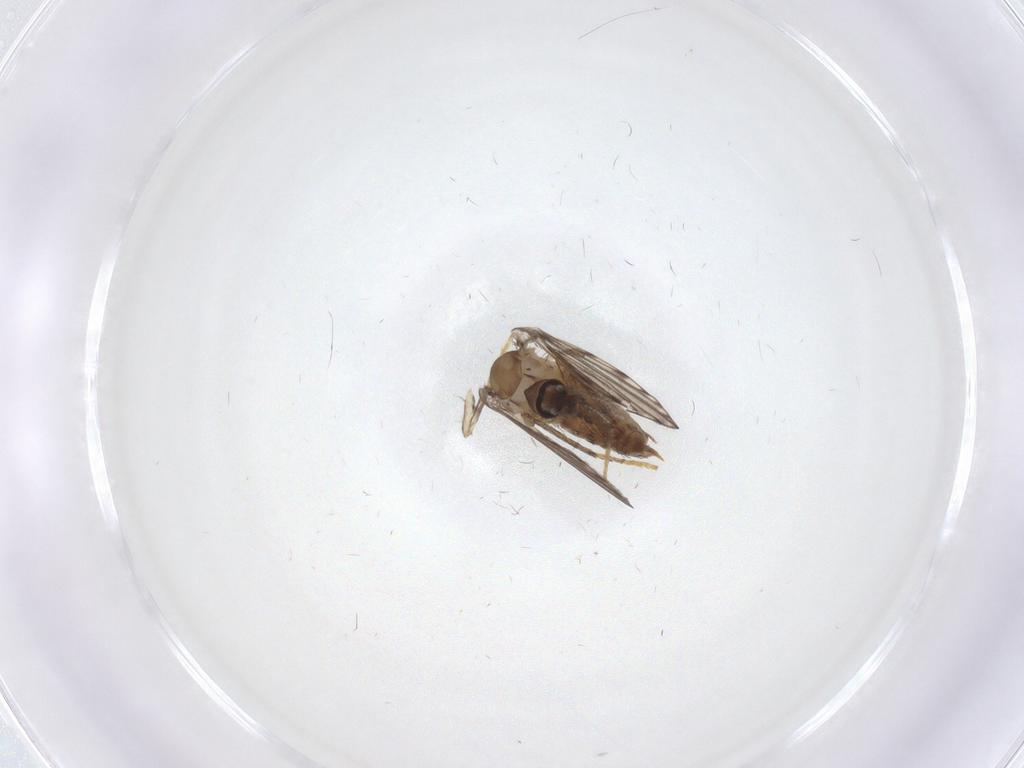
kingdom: Animalia
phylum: Arthropoda
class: Insecta
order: Diptera
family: Psychodidae
